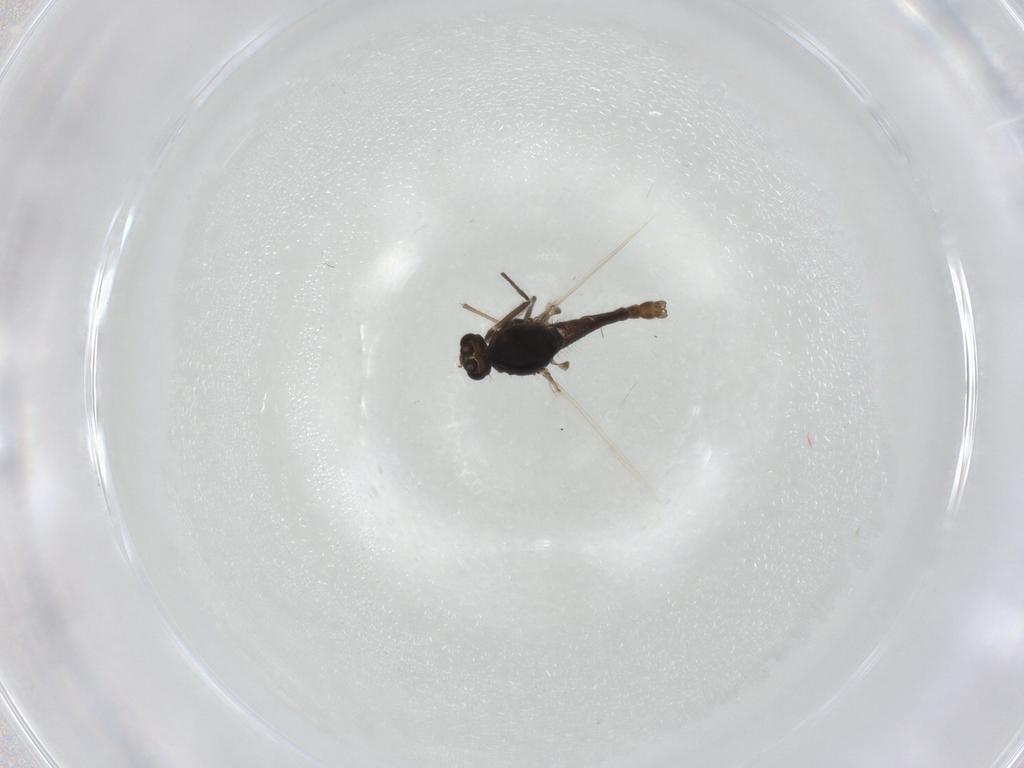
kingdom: Animalia
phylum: Arthropoda
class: Insecta
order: Diptera
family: Chironomidae
